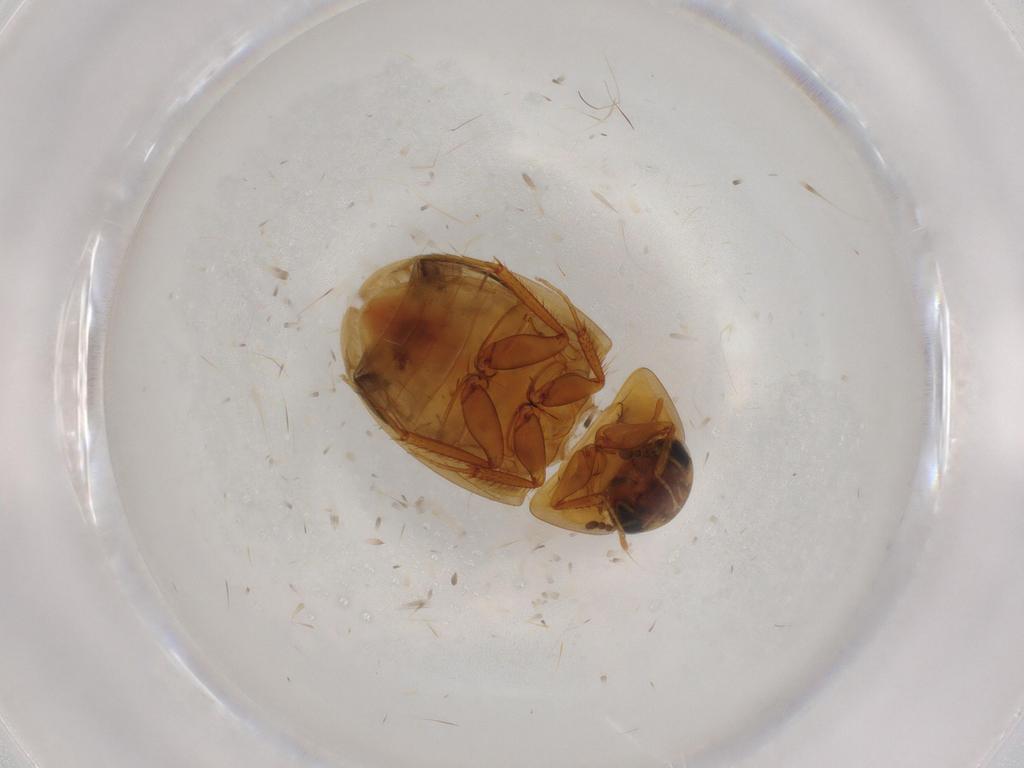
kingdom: Animalia
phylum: Arthropoda
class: Insecta
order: Coleoptera
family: Hydrophilidae
